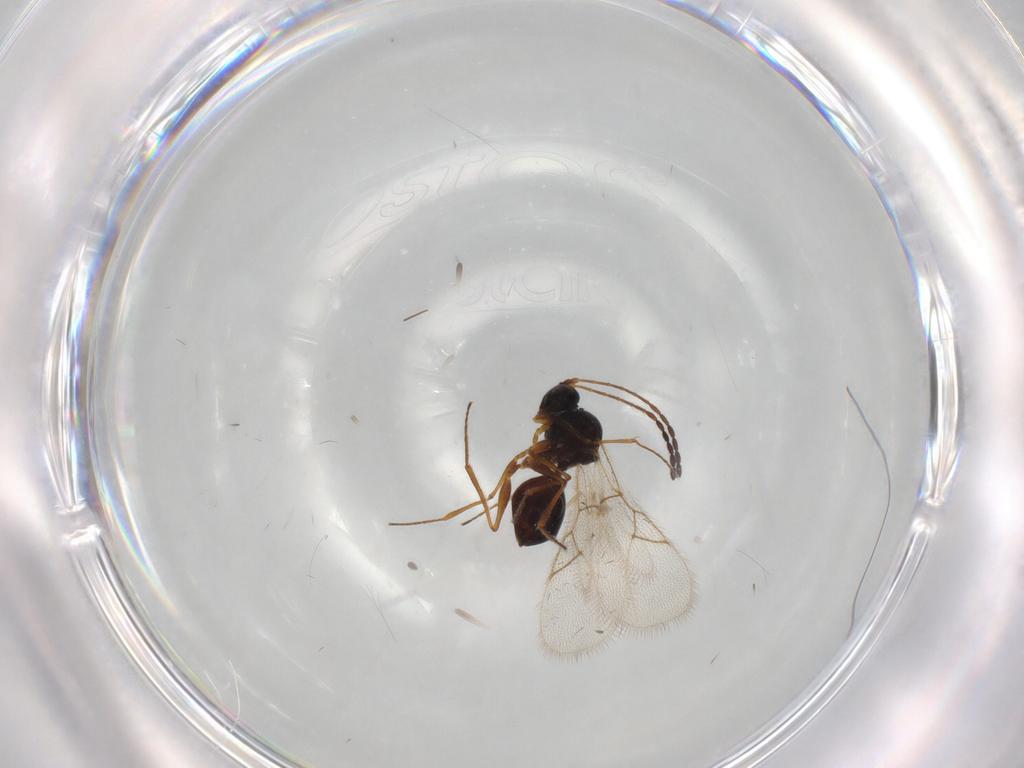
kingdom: Animalia
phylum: Arthropoda
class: Insecta
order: Hymenoptera
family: Figitidae
